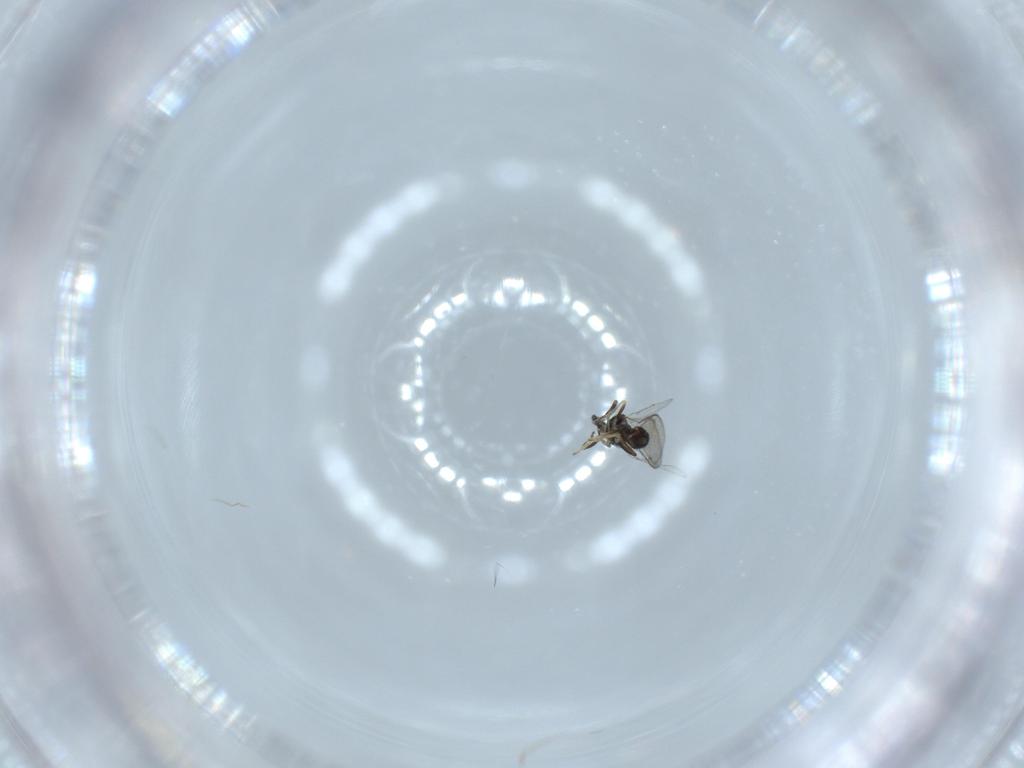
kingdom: Animalia
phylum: Arthropoda
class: Insecta
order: Hymenoptera
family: Eupelmidae
